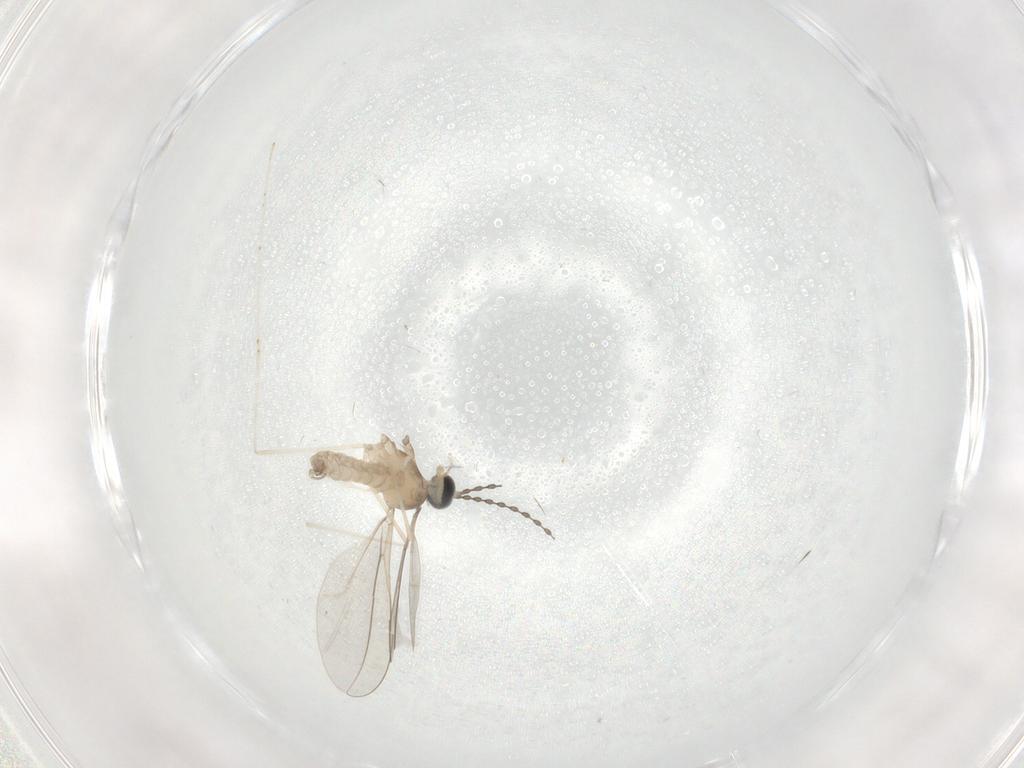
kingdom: Animalia
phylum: Arthropoda
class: Insecta
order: Diptera
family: Cecidomyiidae
